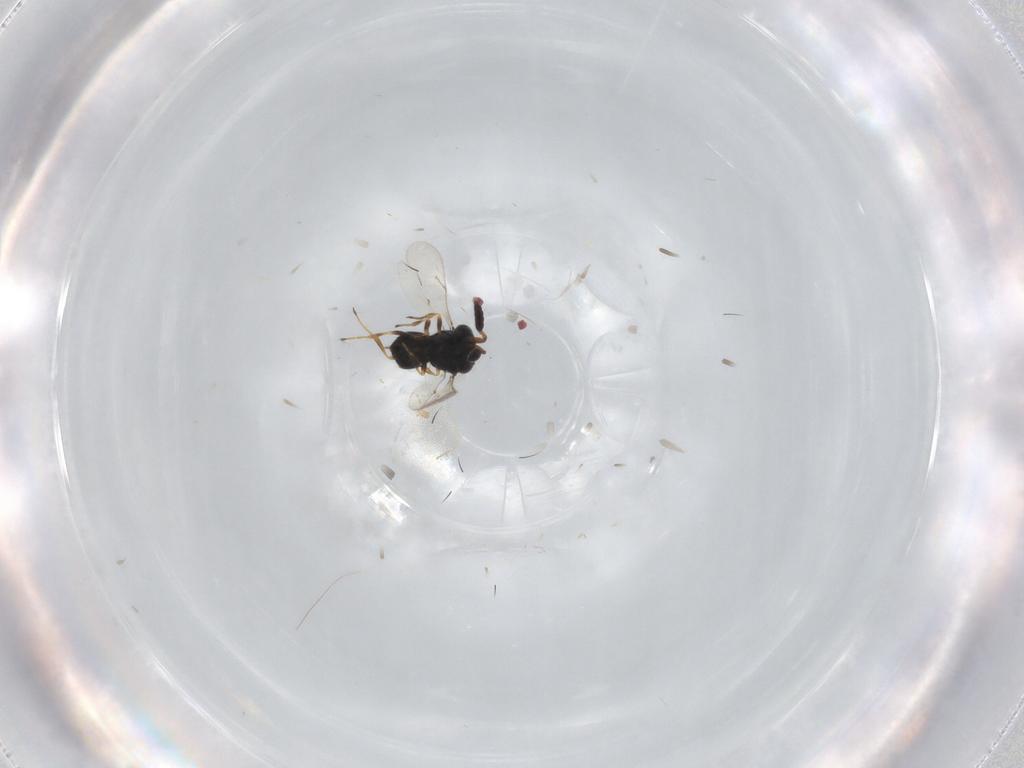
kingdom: Animalia
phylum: Arthropoda
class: Insecta
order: Hymenoptera
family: Scelionidae
